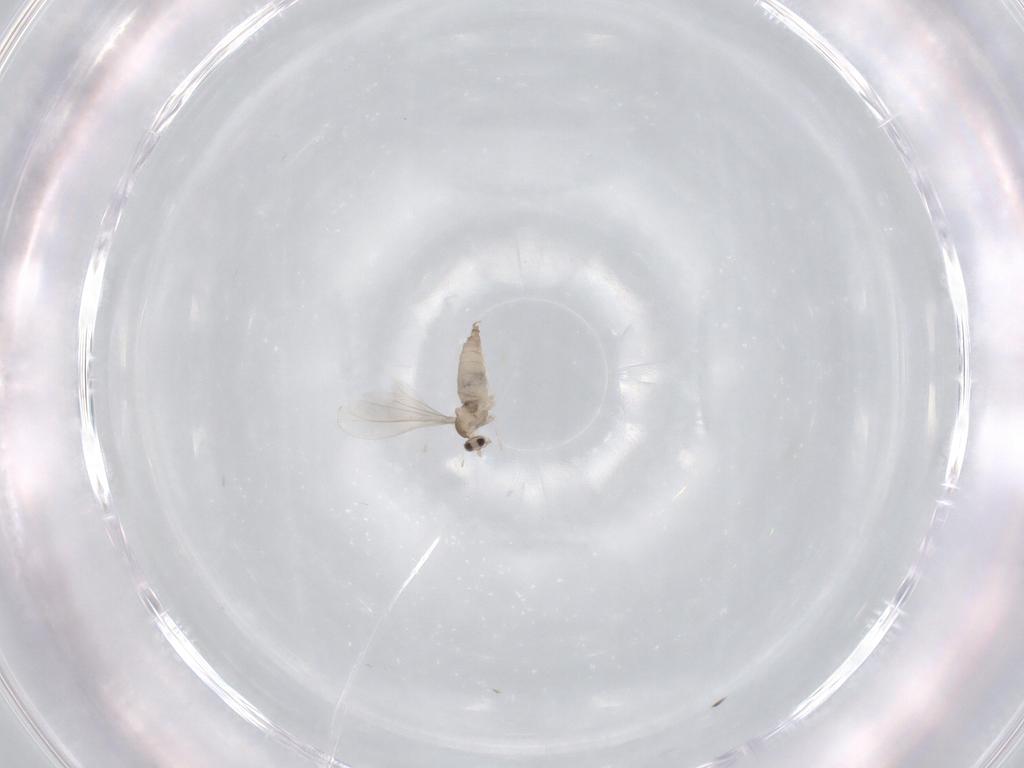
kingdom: Animalia
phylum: Arthropoda
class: Insecta
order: Diptera
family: Cecidomyiidae
